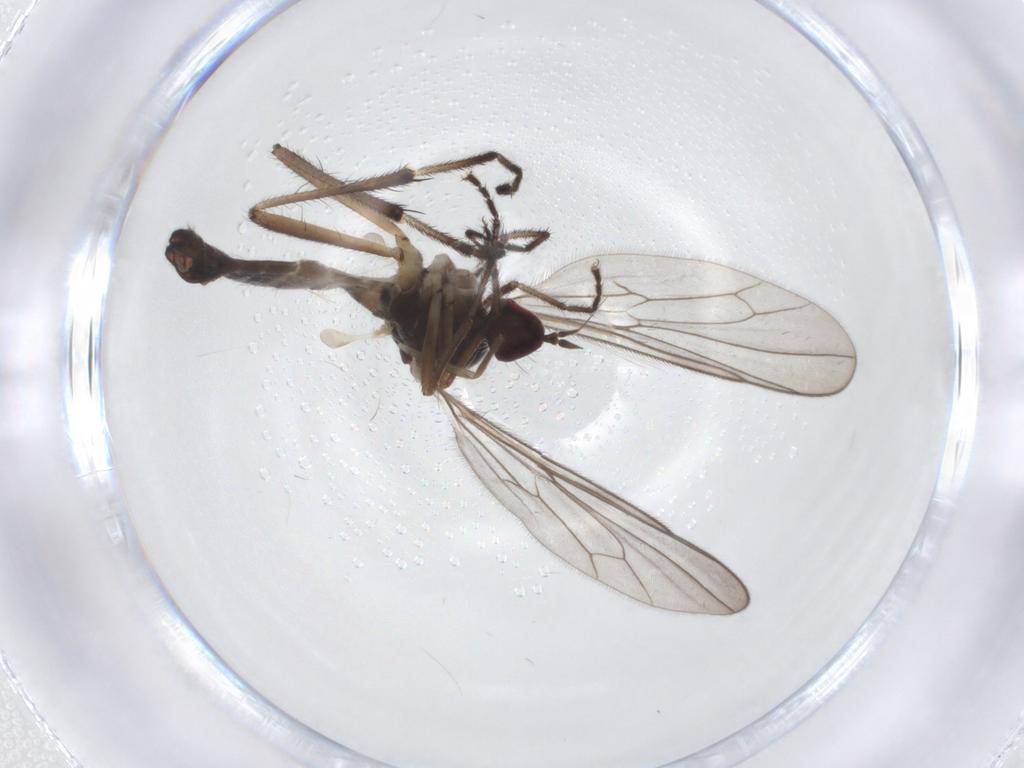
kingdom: Animalia
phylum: Arthropoda
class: Insecta
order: Diptera
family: Hybotidae
